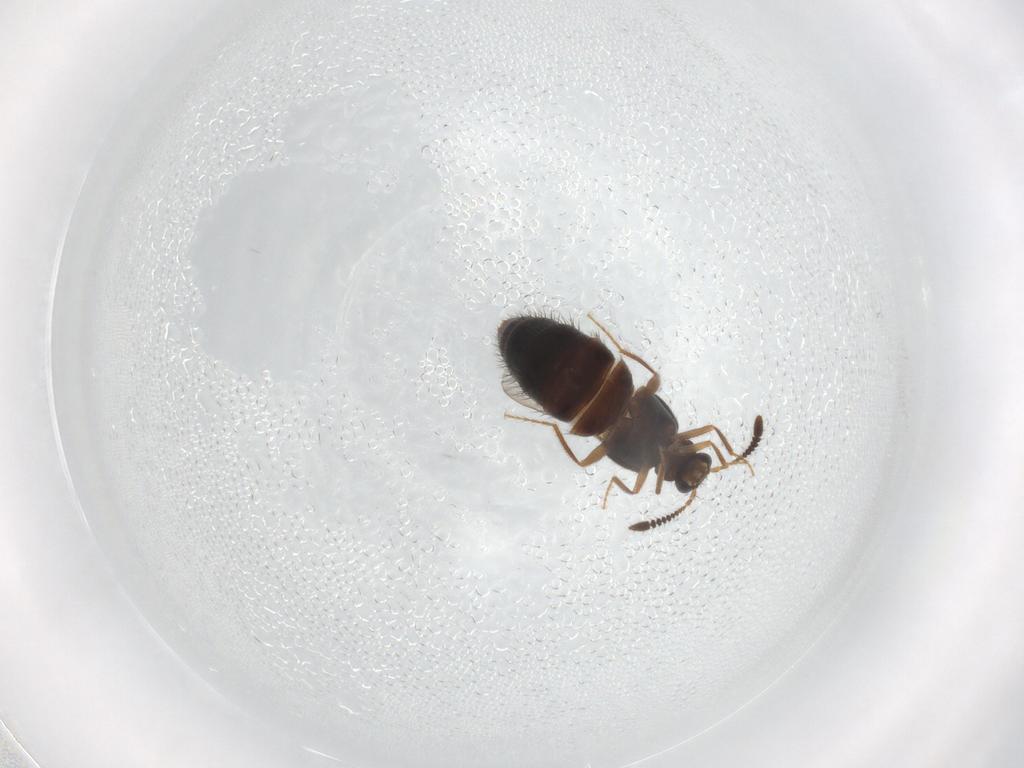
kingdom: Animalia
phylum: Arthropoda
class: Insecta
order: Coleoptera
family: Staphylinidae
